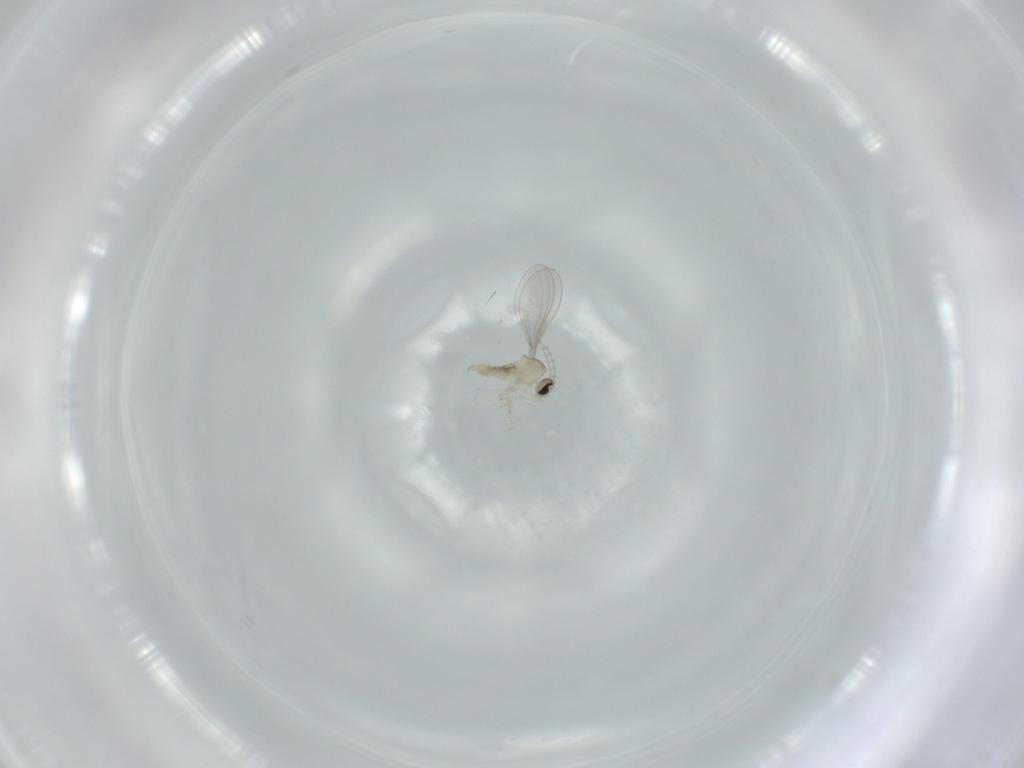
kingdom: Animalia
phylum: Arthropoda
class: Insecta
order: Diptera
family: Cecidomyiidae
